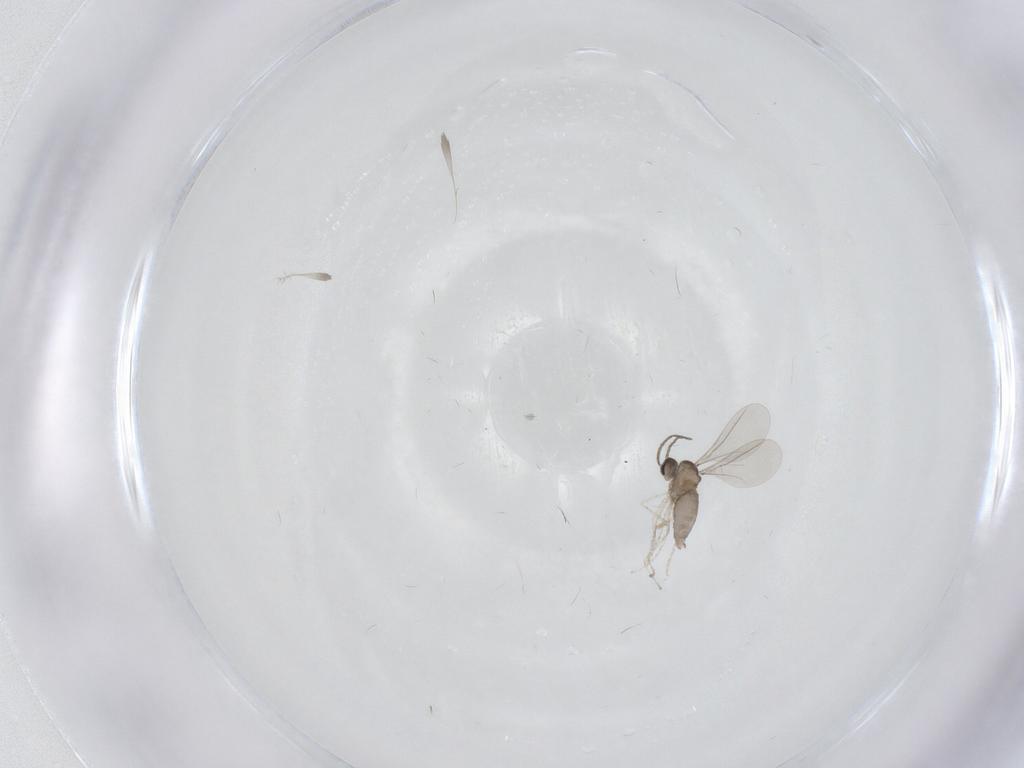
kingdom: Animalia
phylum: Arthropoda
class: Insecta
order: Diptera
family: Cecidomyiidae
